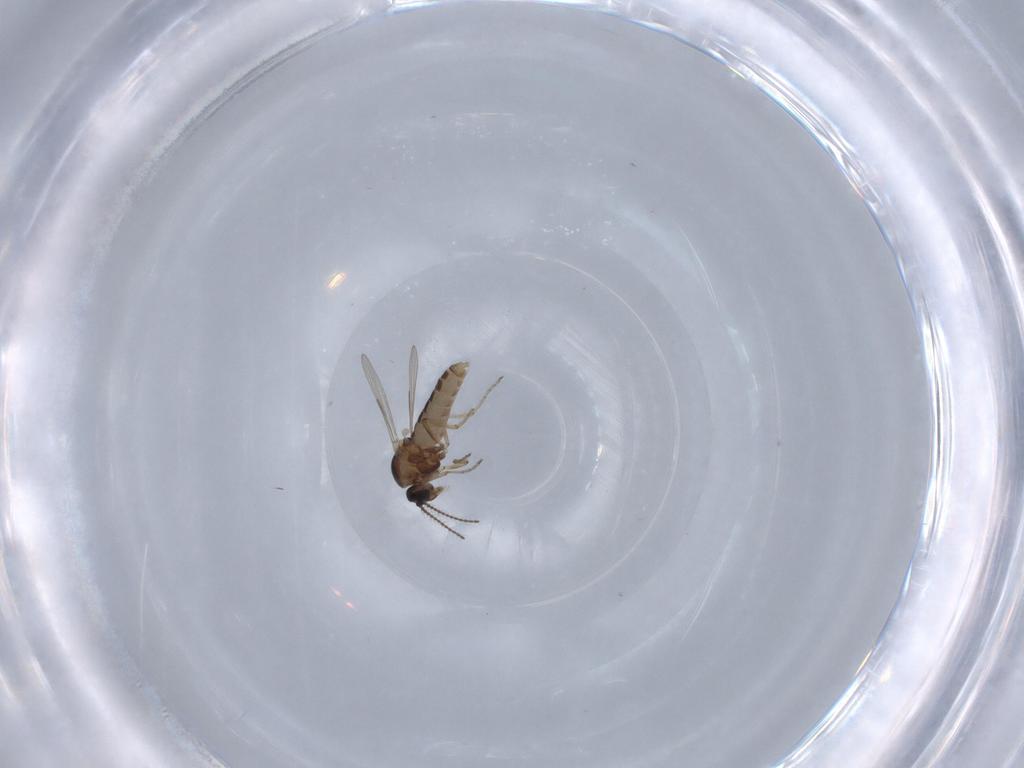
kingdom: Animalia
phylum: Arthropoda
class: Insecta
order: Diptera
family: Ceratopogonidae
